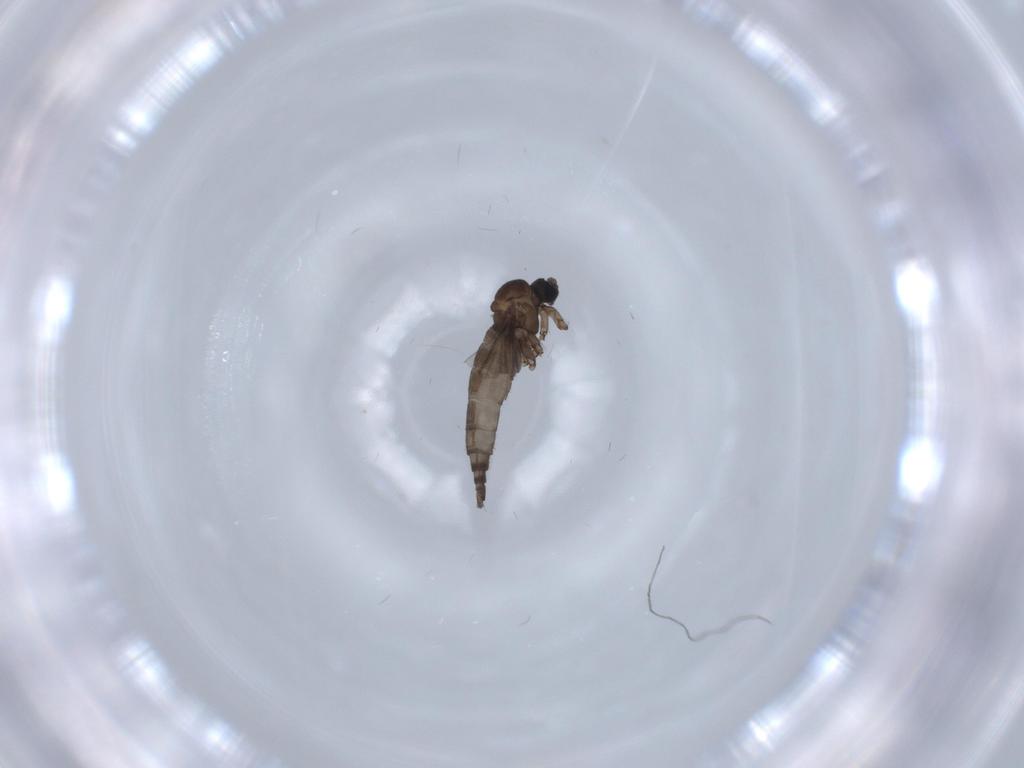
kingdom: Animalia
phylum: Arthropoda
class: Insecta
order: Diptera
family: Sciaridae
